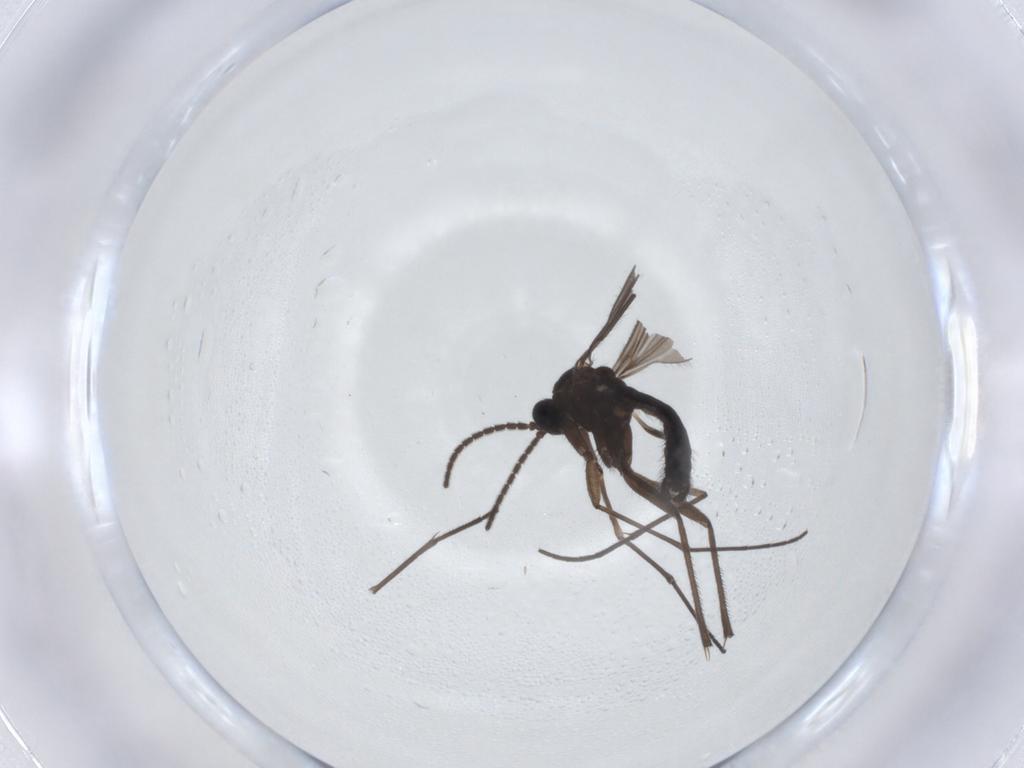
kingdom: Animalia
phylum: Arthropoda
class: Insecta
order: Diptera
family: Sciaridae
